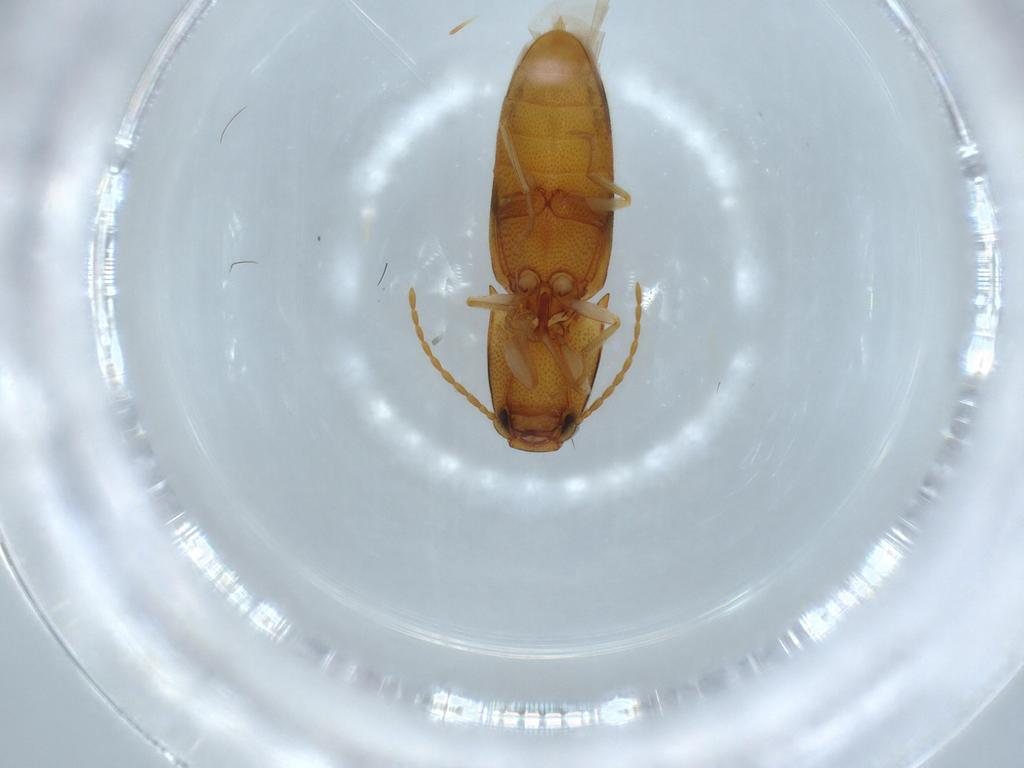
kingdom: Animalia
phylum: Arthropoda
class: Insecta
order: Coleoptera
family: Elateridae
